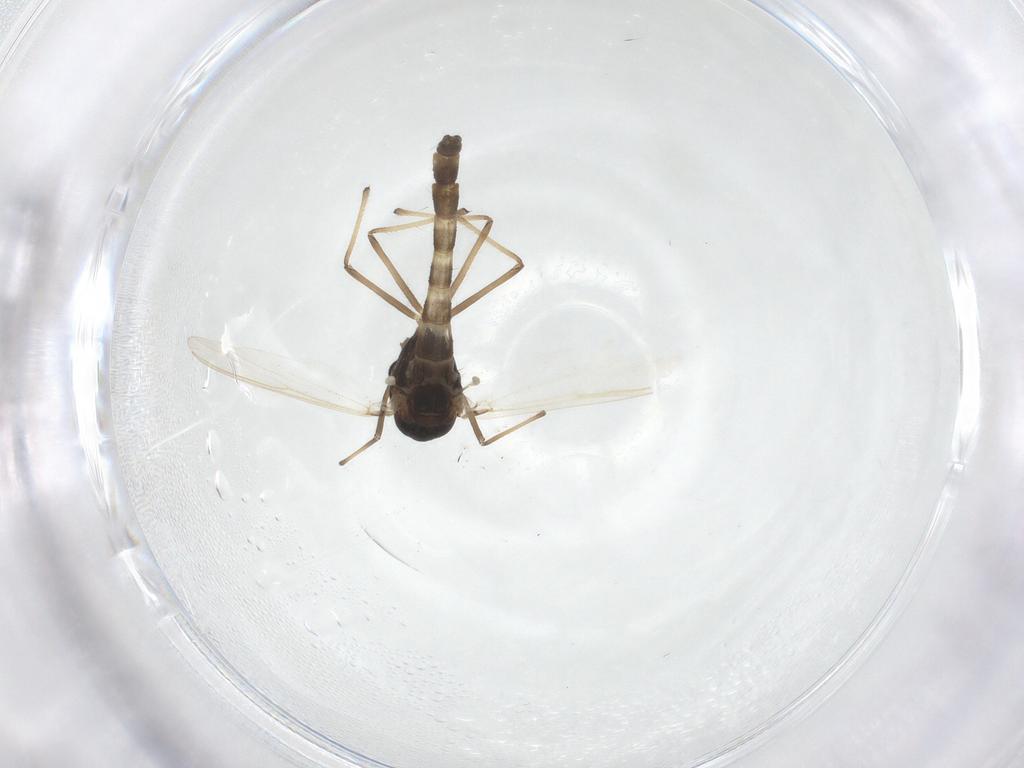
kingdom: Animalia
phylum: Arthropoda
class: Insecta
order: Diptera
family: Chironomidae
